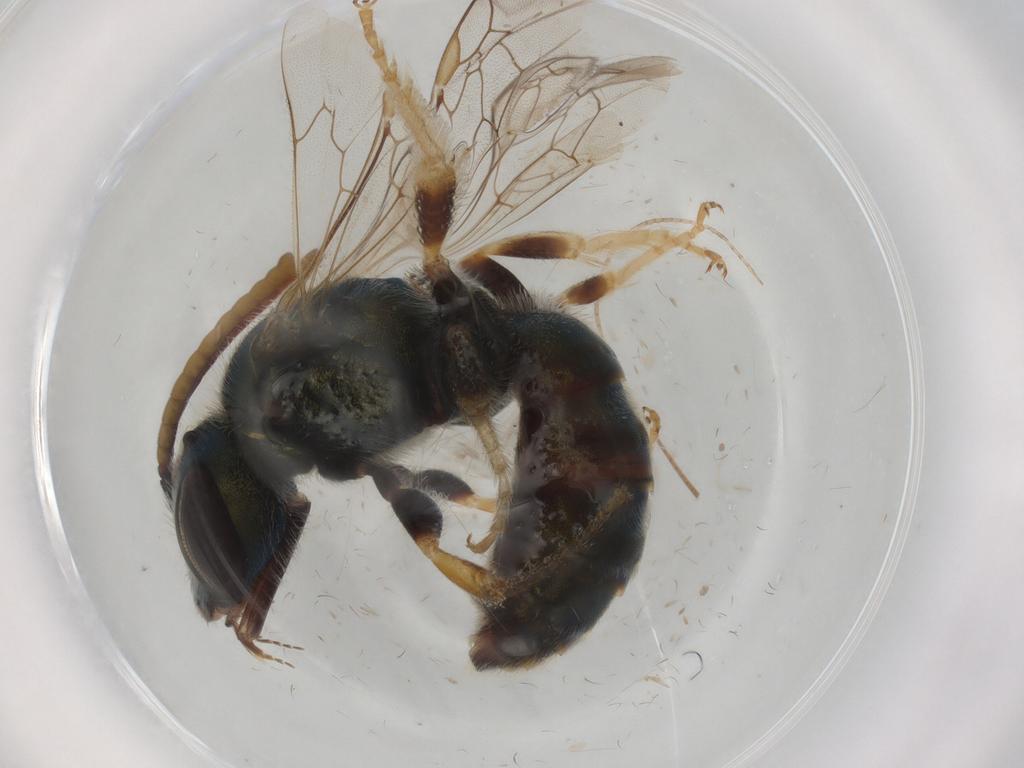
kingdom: Animalia
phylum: Arthropoda
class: Insecta
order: Hymenoptera
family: Halictidae
